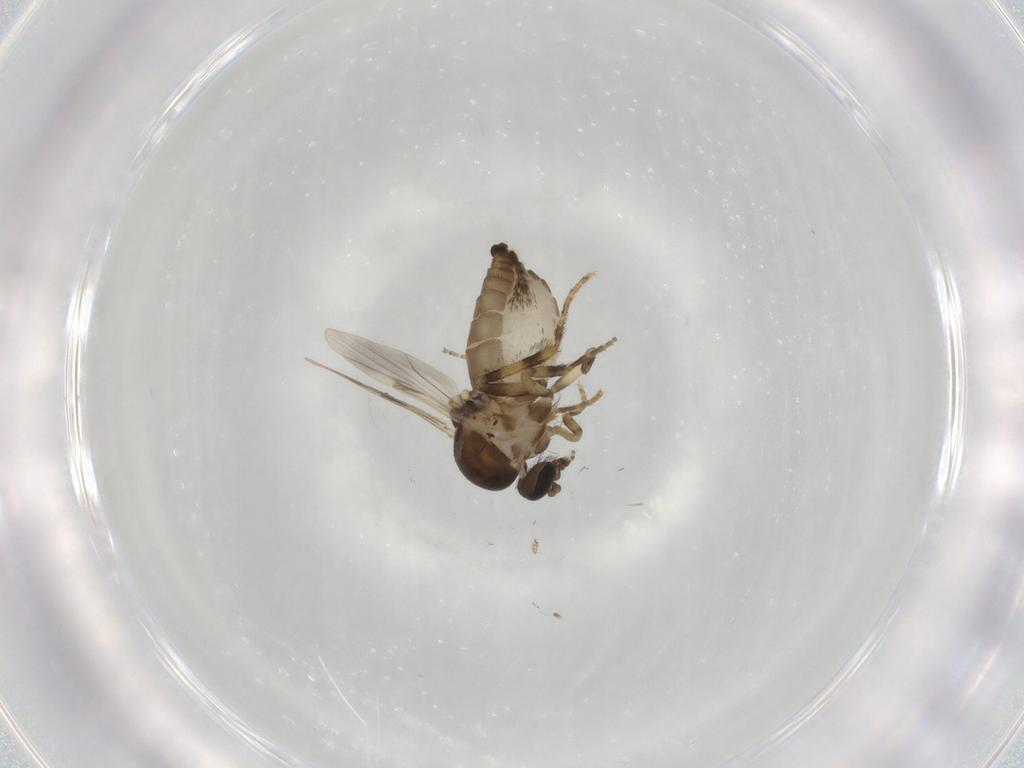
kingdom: Animalia
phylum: Arthropoda
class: Insecta
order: Diptera
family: Ceratopogonidae
